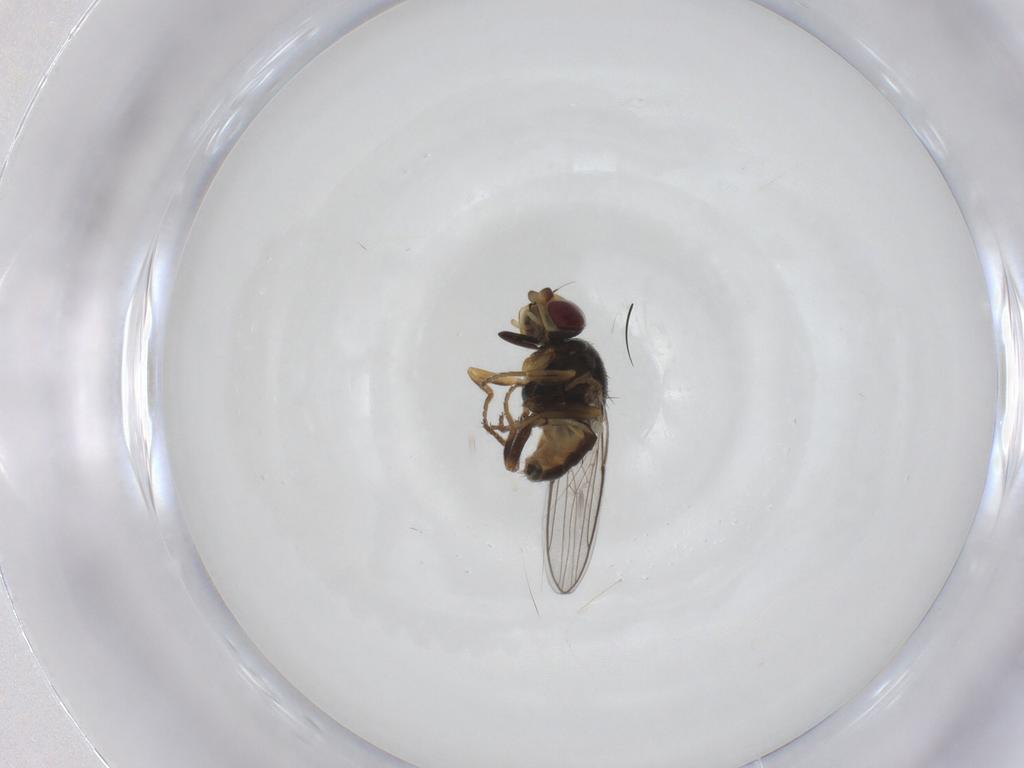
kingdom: Animalia
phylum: Arthropoda
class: Insecta
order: Diptera
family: Chloropidae
